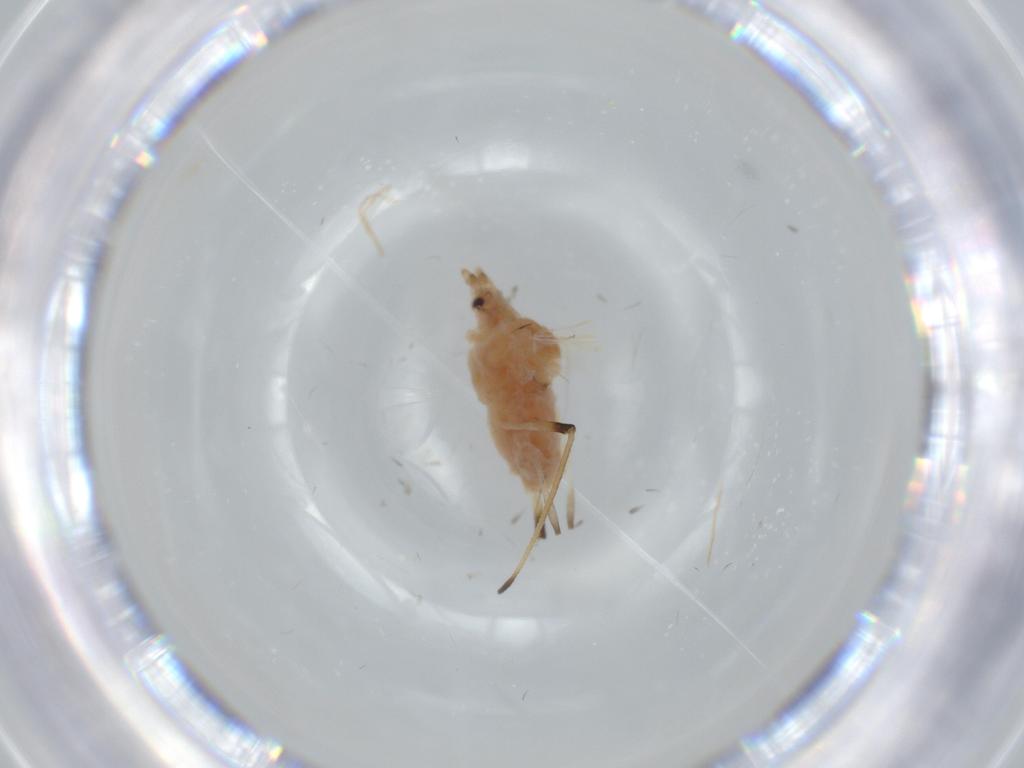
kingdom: Animalia
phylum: Arthropoda
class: Insecta
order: Hemiptera
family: Aphididae
